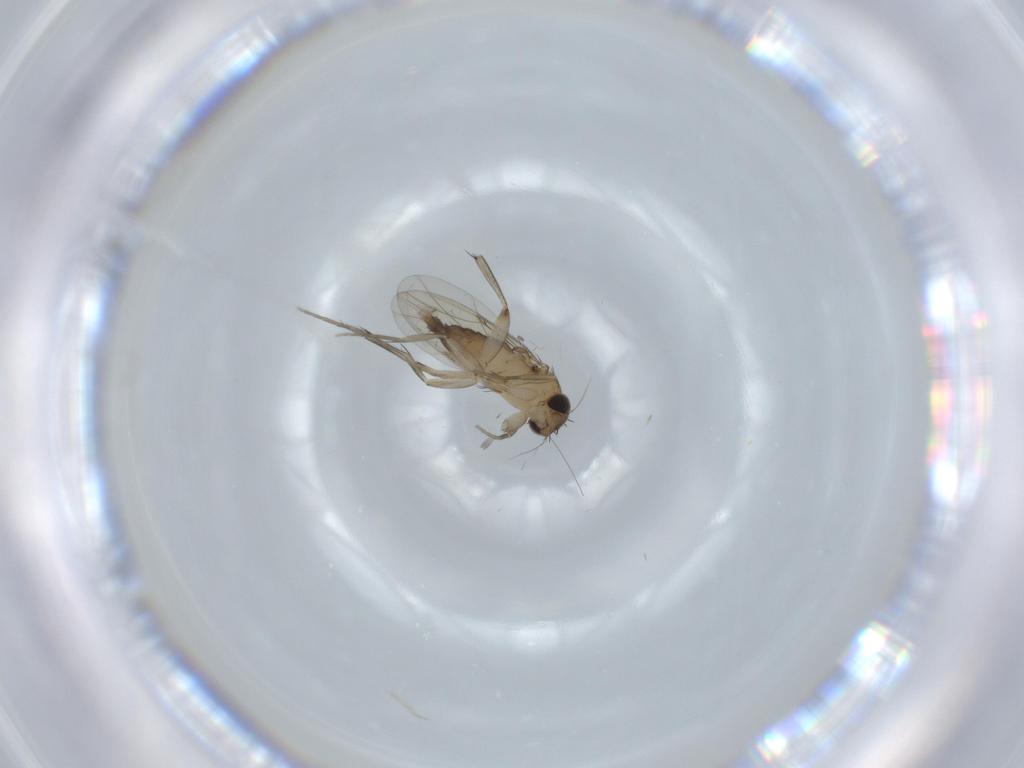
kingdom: Animalia
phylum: Arthropoda
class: Insecta
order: Diptera
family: Phoridae
